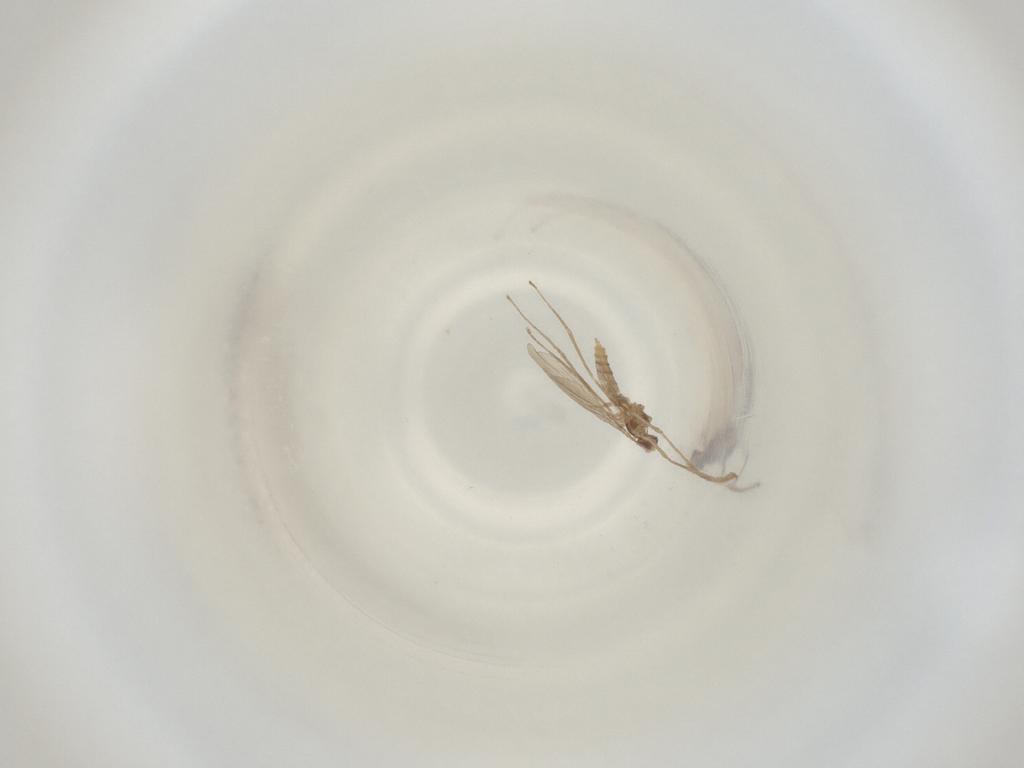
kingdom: Animalia
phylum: Arthropoda
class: Insecta
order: Diptera
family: Cecidomyiidae
